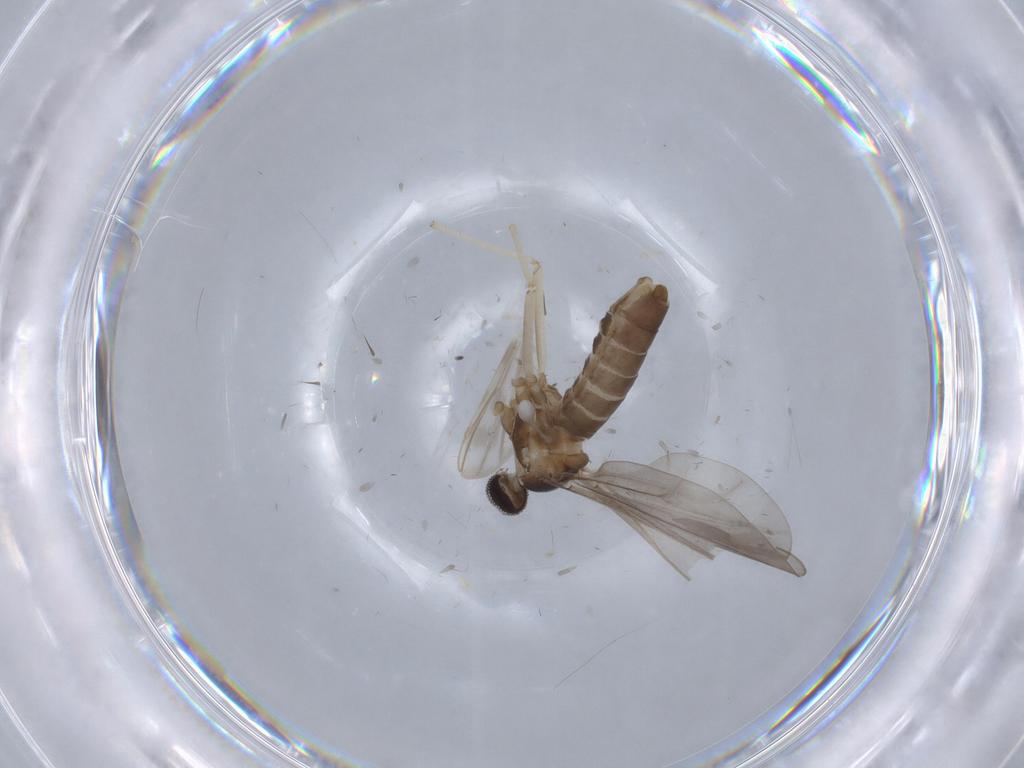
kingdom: Animalia
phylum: Arthropoda
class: Insecta
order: Diptera
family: Psychodidae
